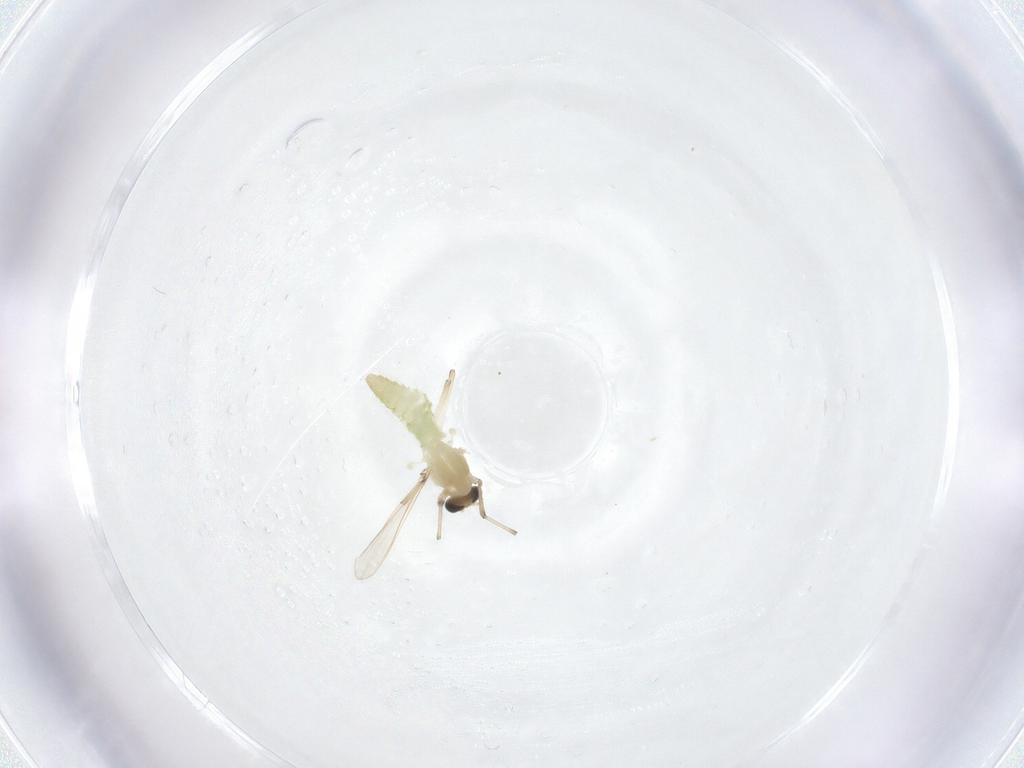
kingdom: Animalia
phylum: Arthropoda
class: Insecta
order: Diptera
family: Chironomidae
